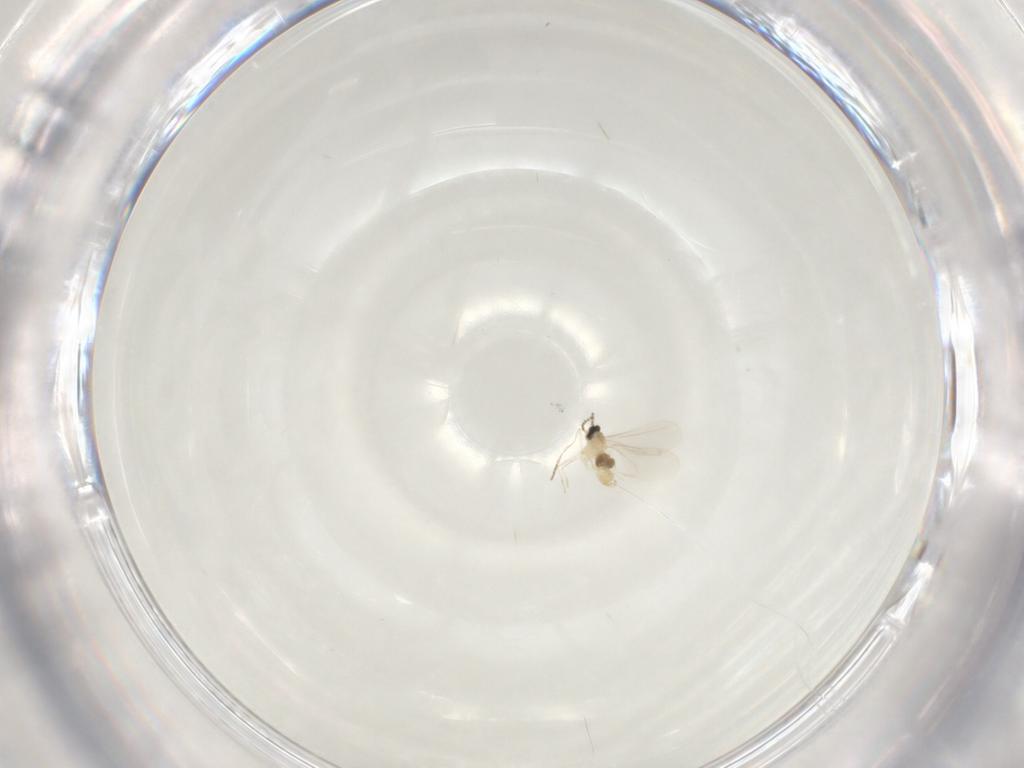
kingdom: Animalia
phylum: Arthropoda
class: Insecta
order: Diptera
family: Cecidomyiidae
